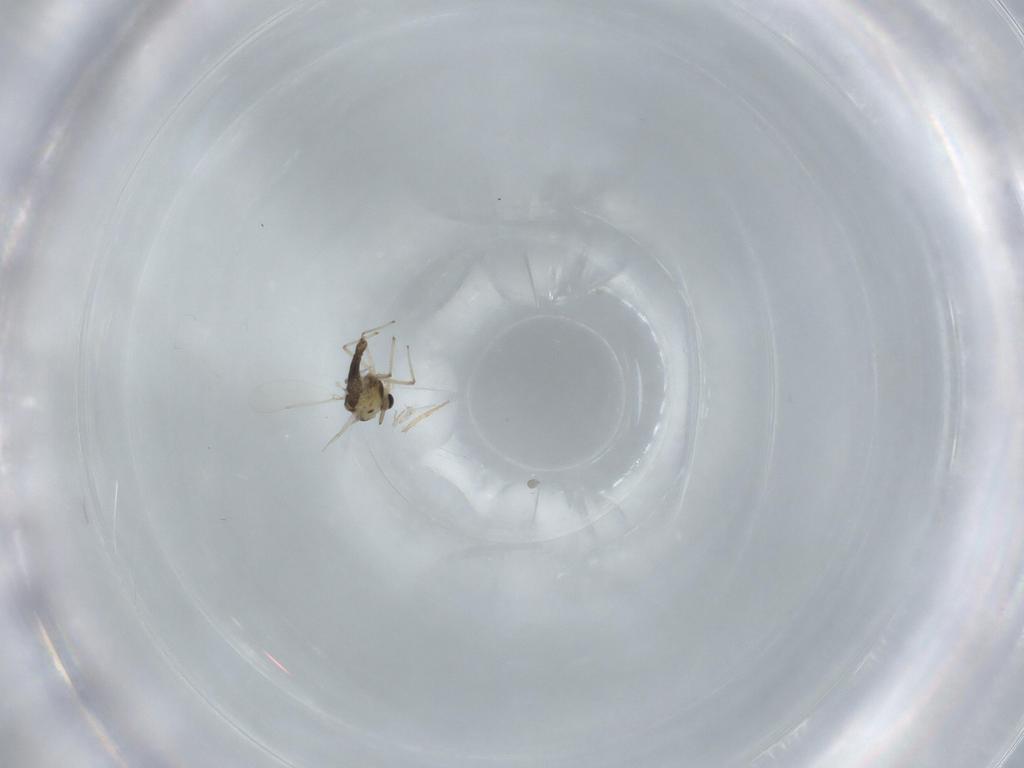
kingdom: Animalia
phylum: Arthropoda
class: Insecta
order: Diptera
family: Chironomidae
